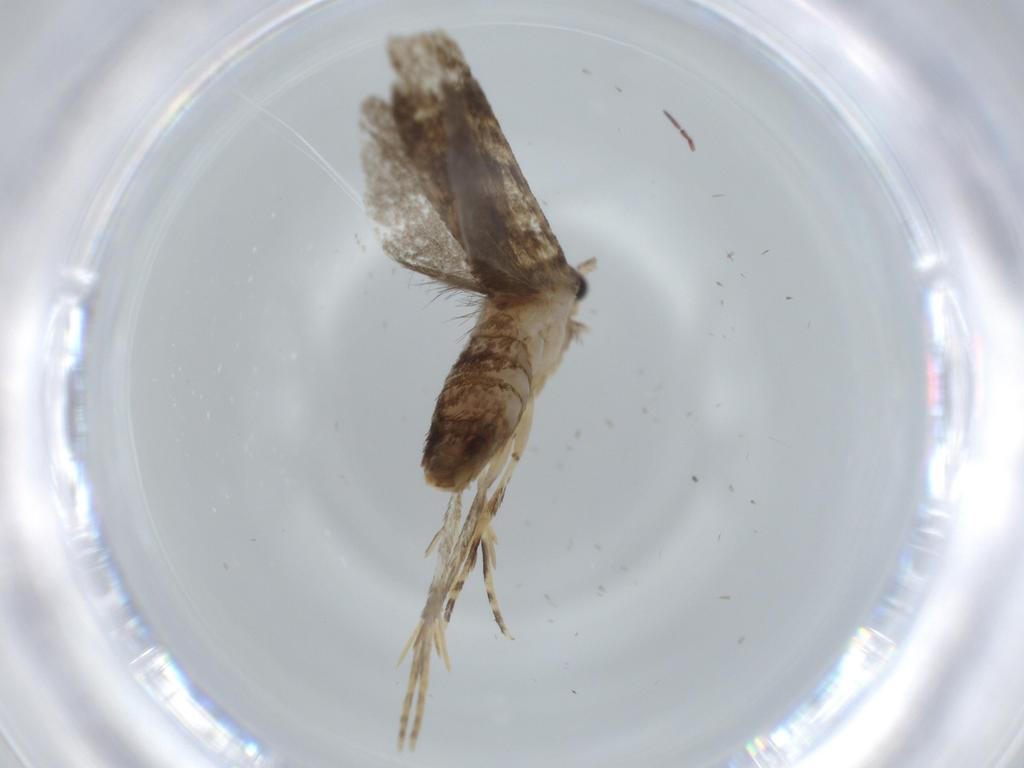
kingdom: Animalia
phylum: Arthropoda
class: Insecta
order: Lepidoptera
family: Tineidae
